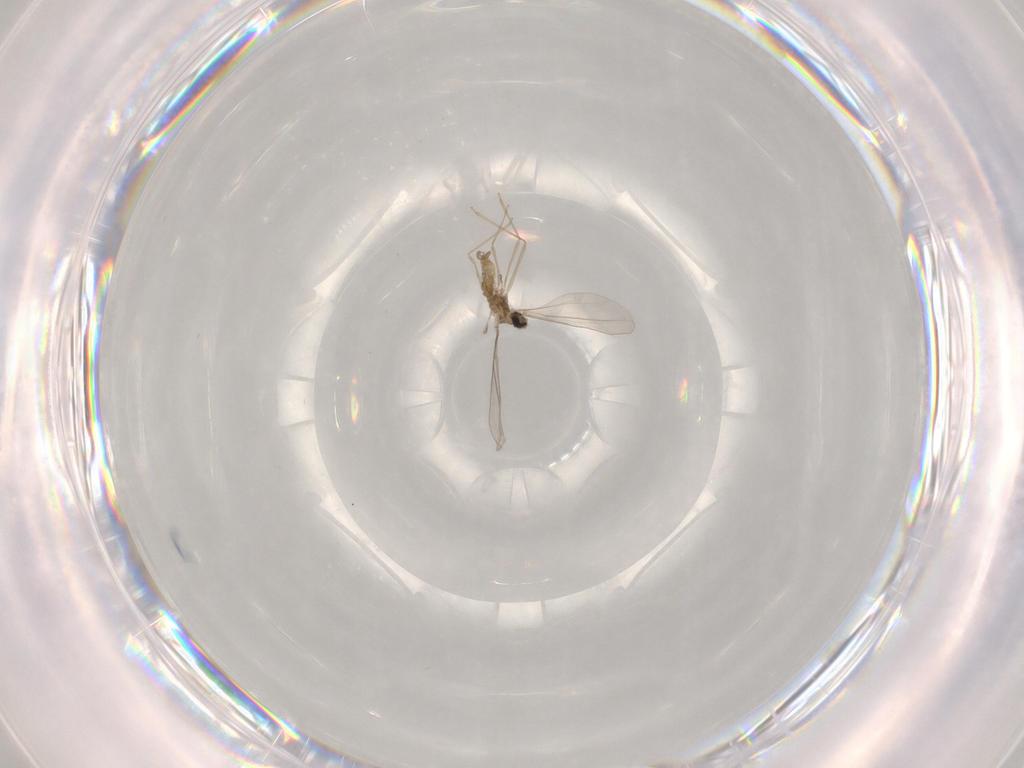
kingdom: Animalia
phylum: Arthropoda
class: Insecta
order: Diptera
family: Cecidomyiidae
